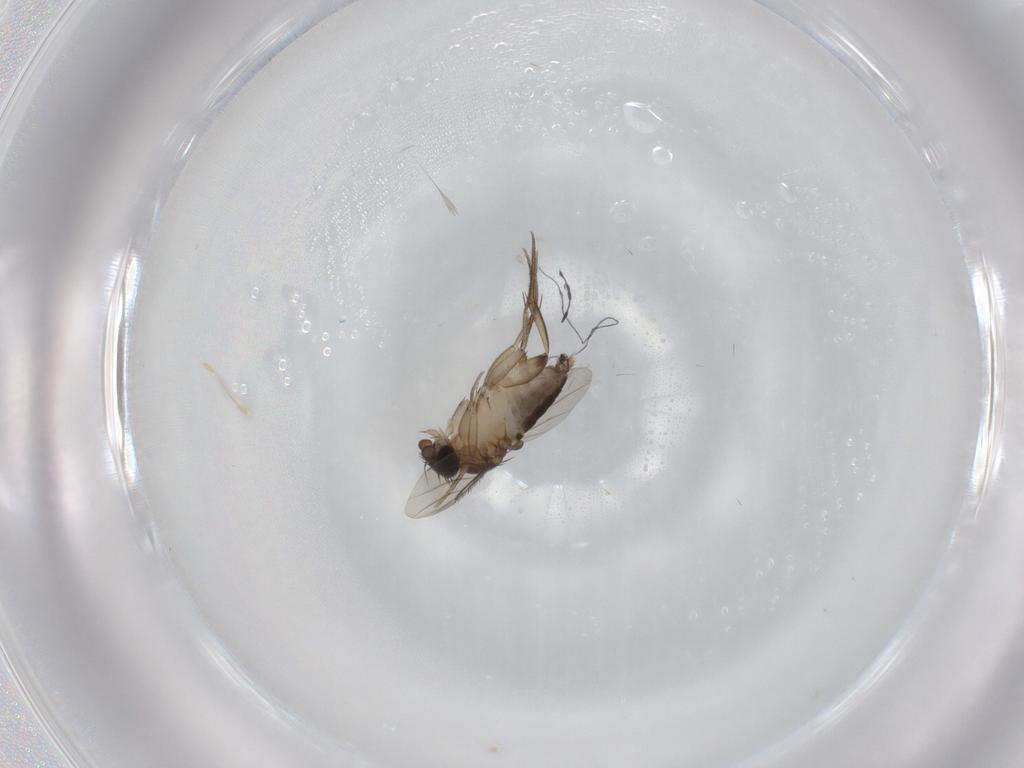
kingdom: Animalia
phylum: Arthropoda
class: Insecta
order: Diptera
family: Phoridae
